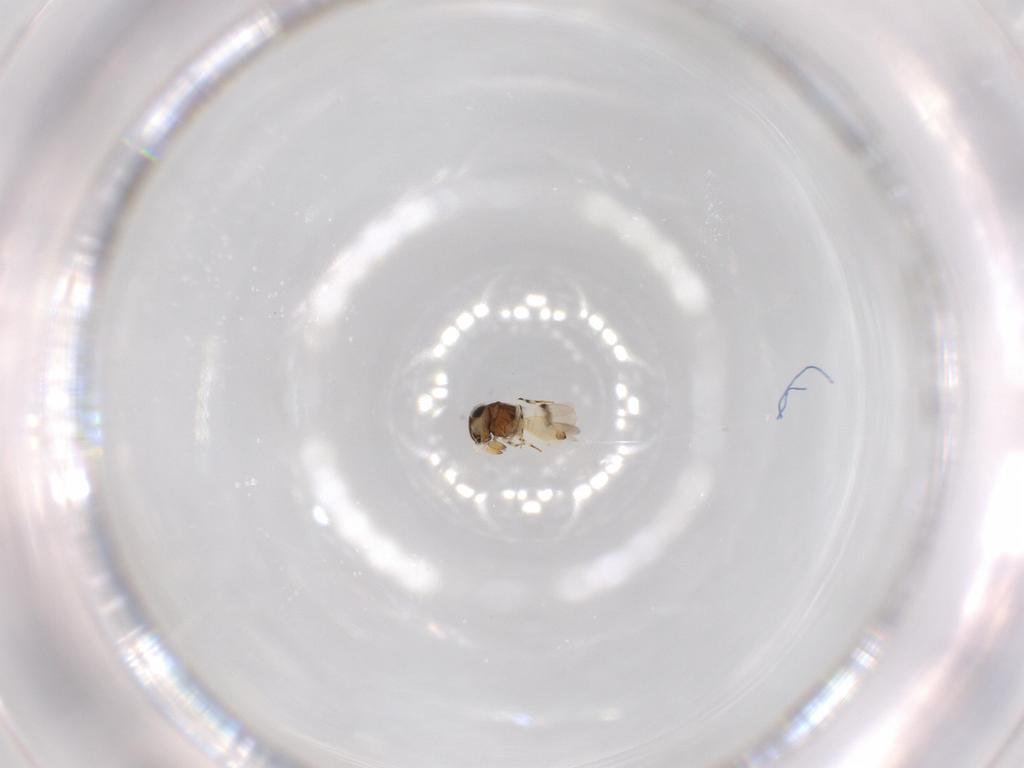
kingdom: Animalia
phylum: Arthropoda
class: Insecta
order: Hymenoptera
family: Scelionidae
